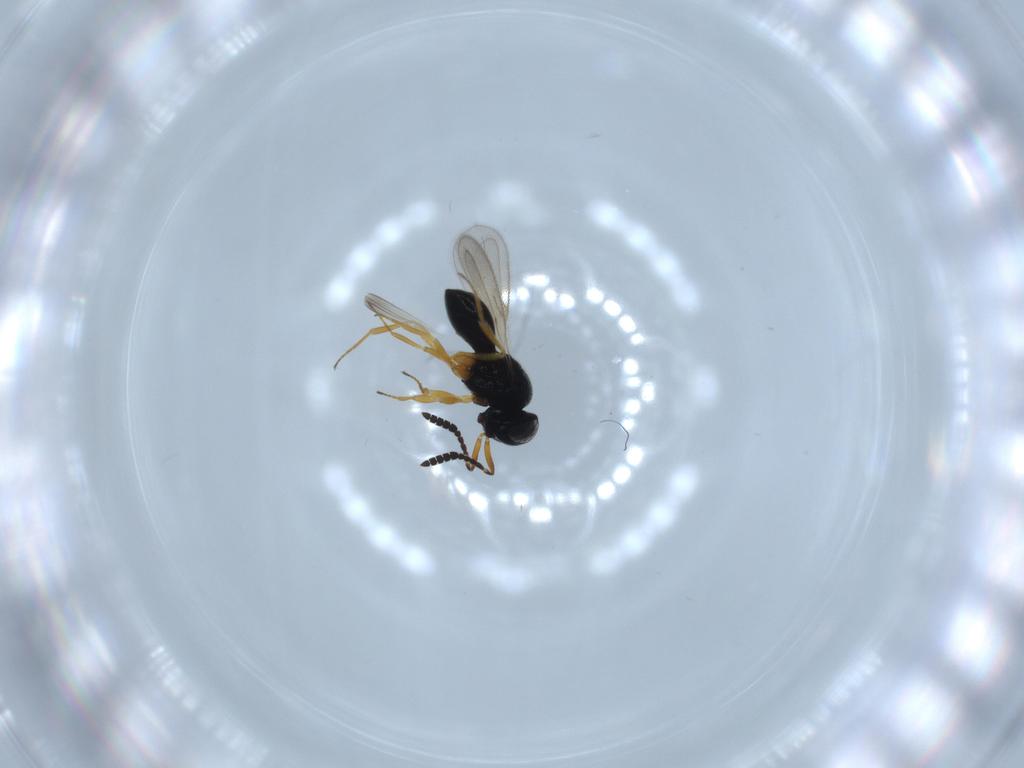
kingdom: Animalia
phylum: Arthropoda
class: Insecta
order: Hymenoptera
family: Scelionidae
